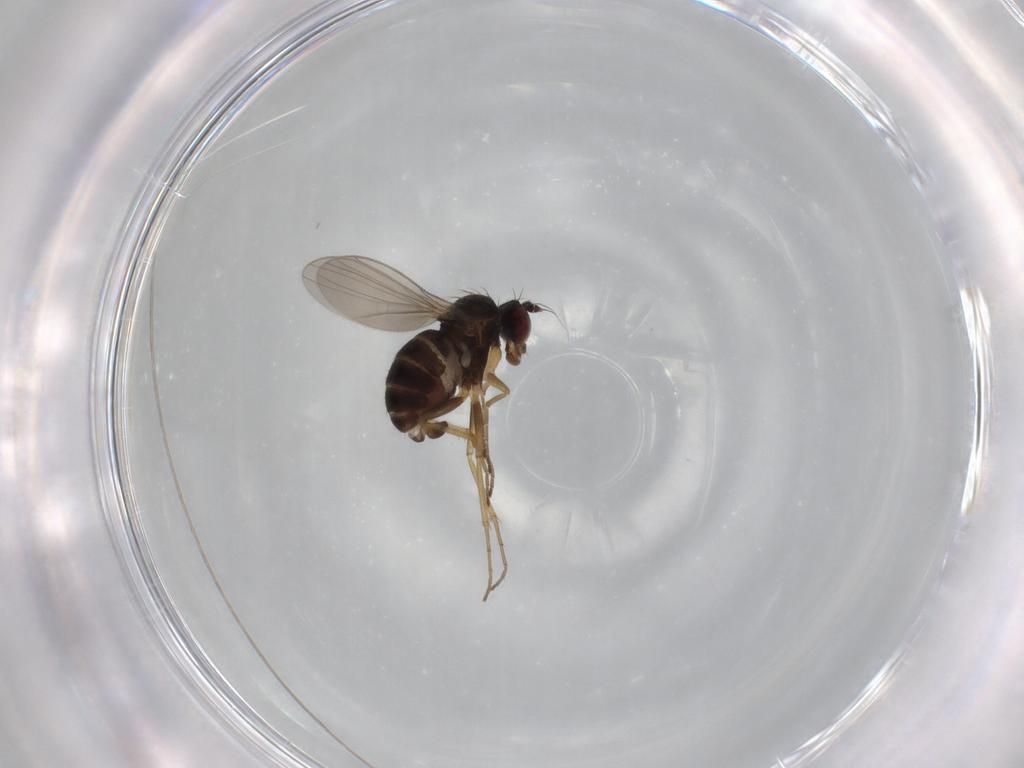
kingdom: Animalia
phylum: Arthropoda
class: Insecta
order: Diptera
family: Dolichopodidae
